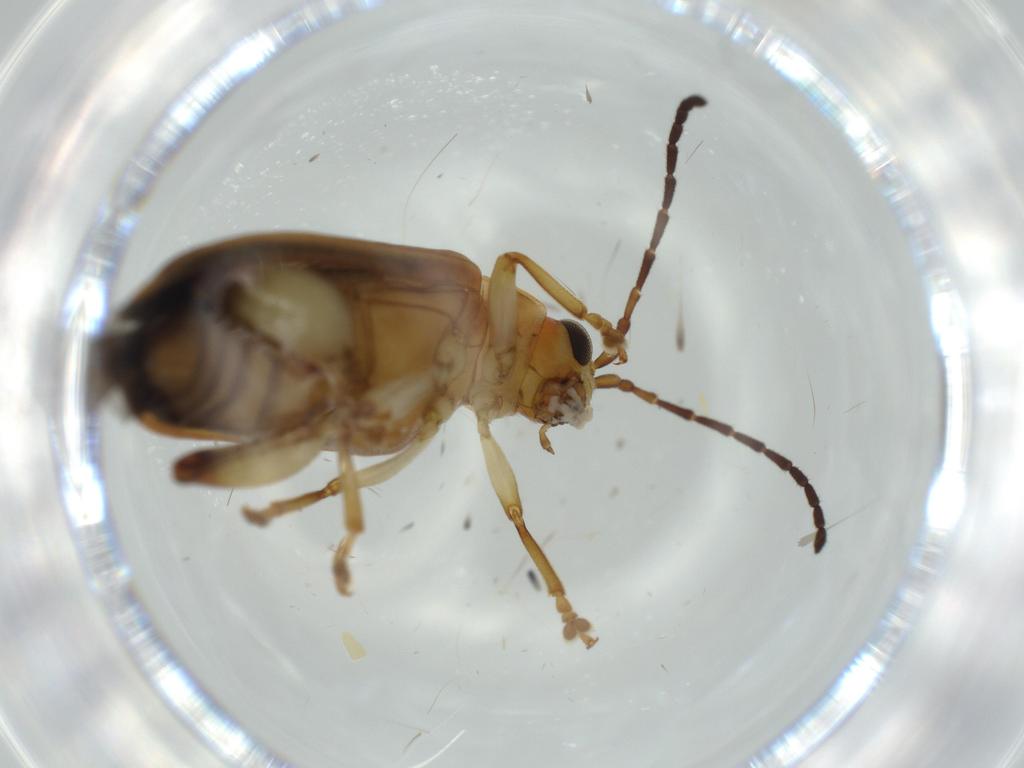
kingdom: Animalia
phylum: Arthropoda
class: Insecta
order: Coleoptera
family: Chrysomelidae
